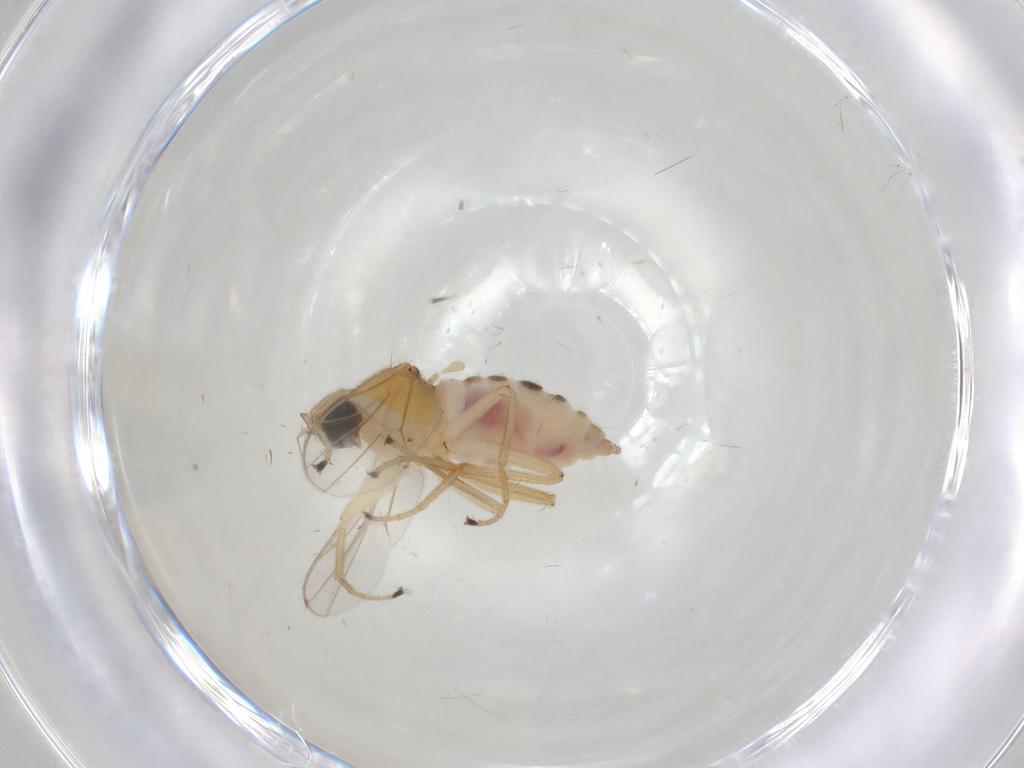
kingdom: Animalia
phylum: Arthropoda
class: Insecta
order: Diptera
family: Hybotidae
